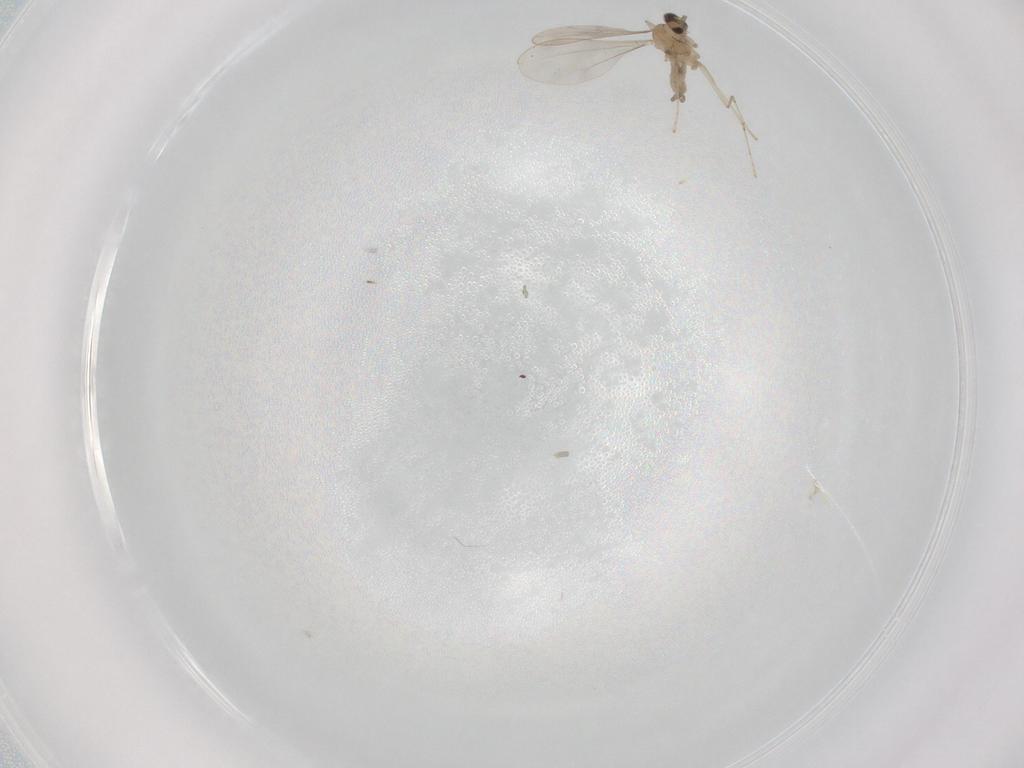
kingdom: Animalia
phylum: Arthropoda
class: Insecta
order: Diptera
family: Cecidomyiidae
